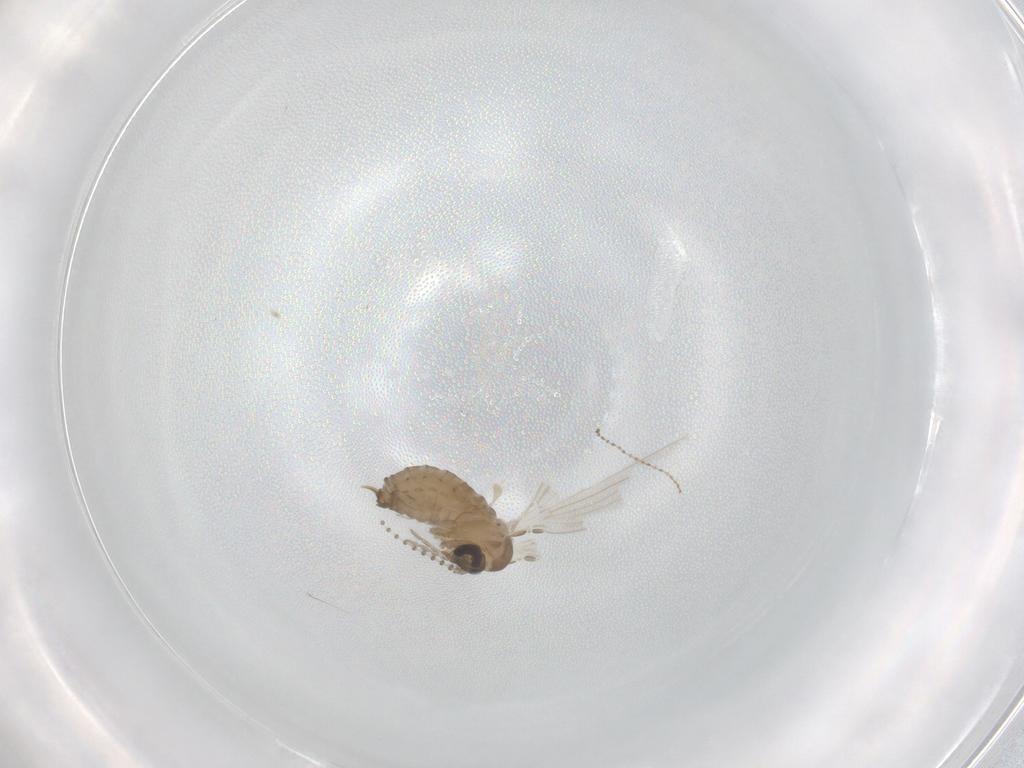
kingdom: Animalia
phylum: Arthropoda
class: Insecta
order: Diptera
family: Psychodidae
